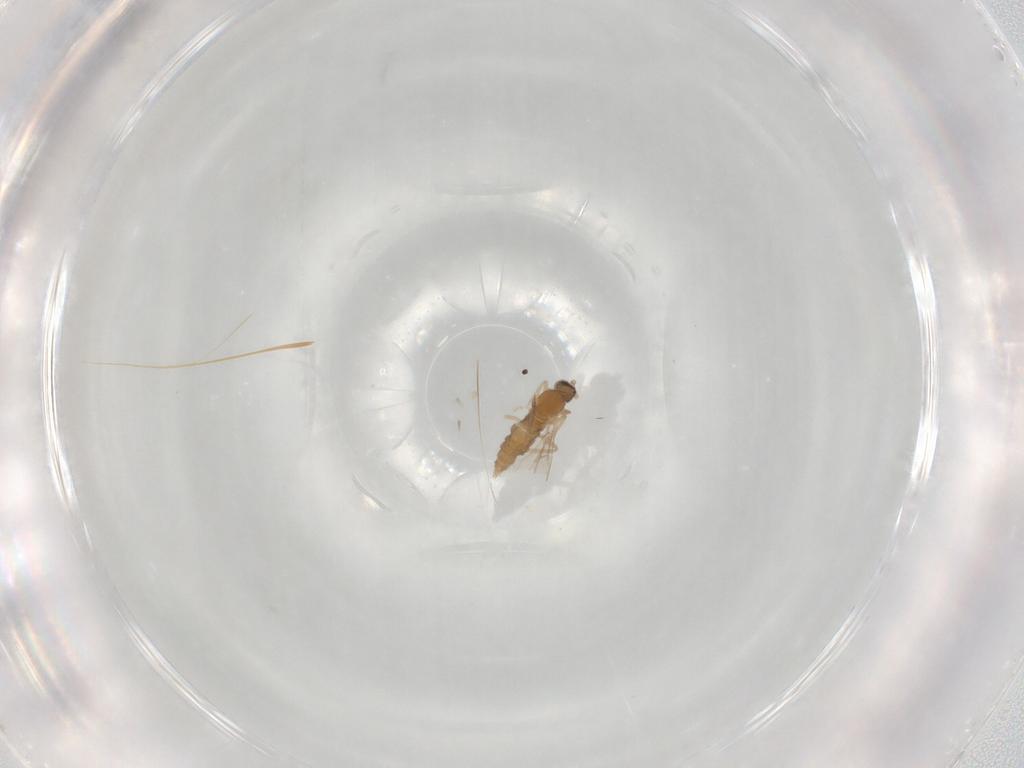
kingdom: Animalia
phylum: Arthropoda
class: Insecta
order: Diptera
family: Cecidomyiidae
